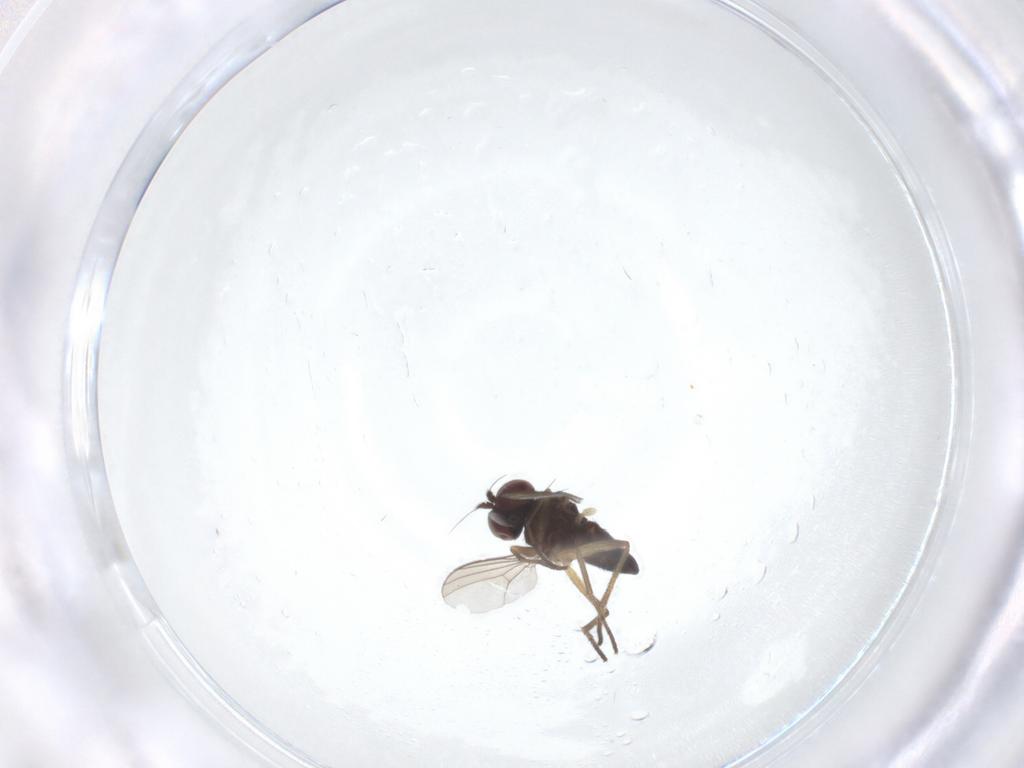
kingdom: Animalia
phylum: Arthropoda
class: Insecta
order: Diptera
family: Dolichopodidae
